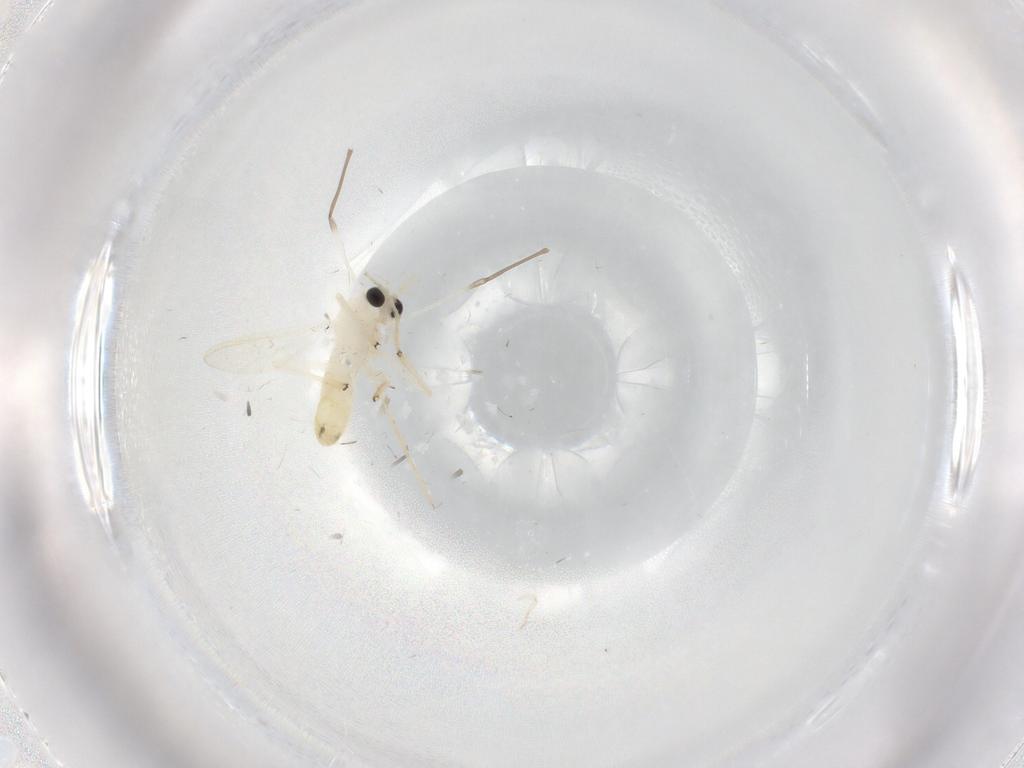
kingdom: Animalia
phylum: Arthropoda
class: Insecta
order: Diptera
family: Chironomidae
